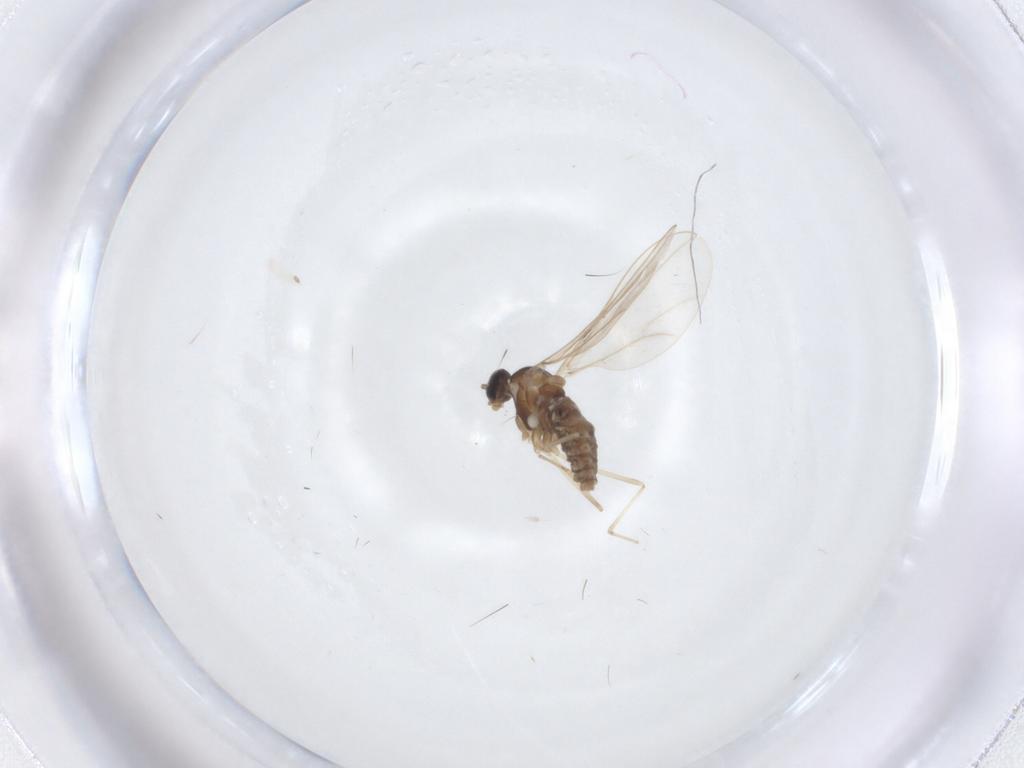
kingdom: Animalia
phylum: Arthropoda
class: Insecta
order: Diptera
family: Cecidomyiidae
